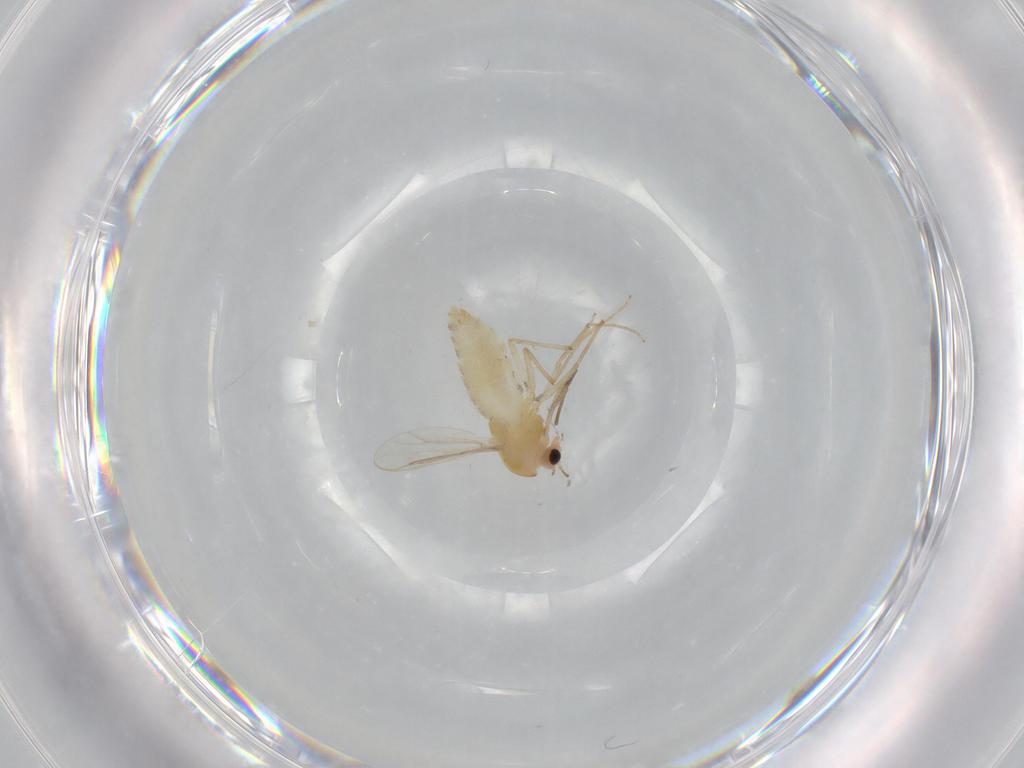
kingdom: Animalia
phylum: Arthropoda
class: Insecta
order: Diptera
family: Chironomidae
